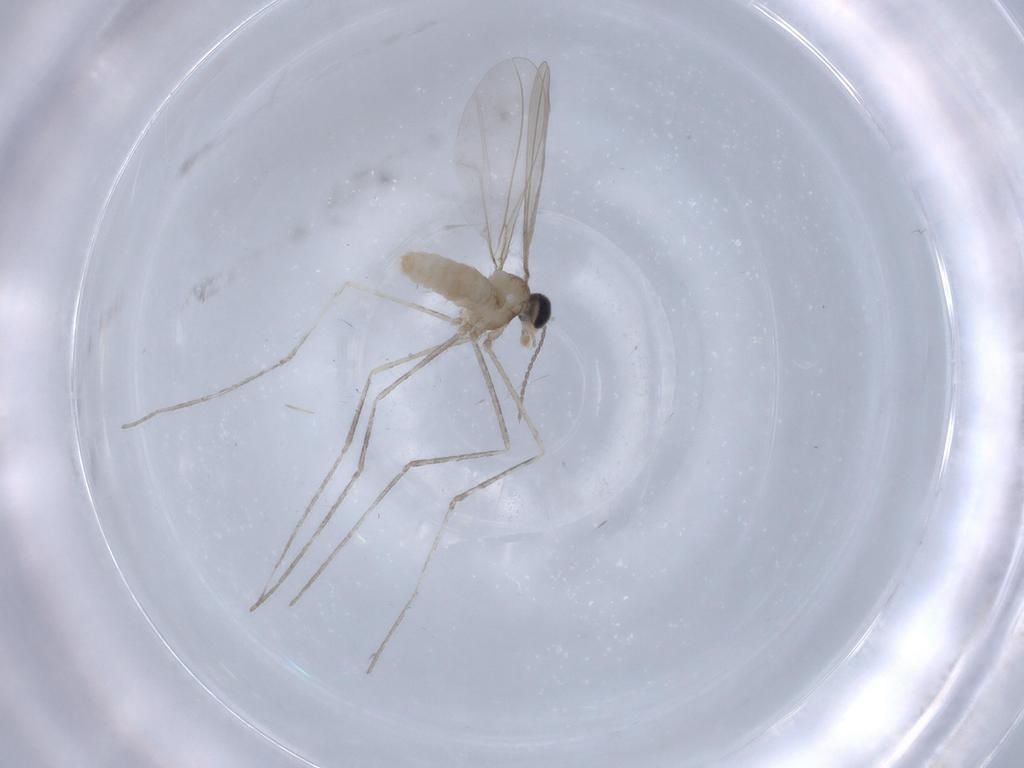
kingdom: Animalia
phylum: Arthropoda
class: Insecta
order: Diptera
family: Cecidomyiidae
